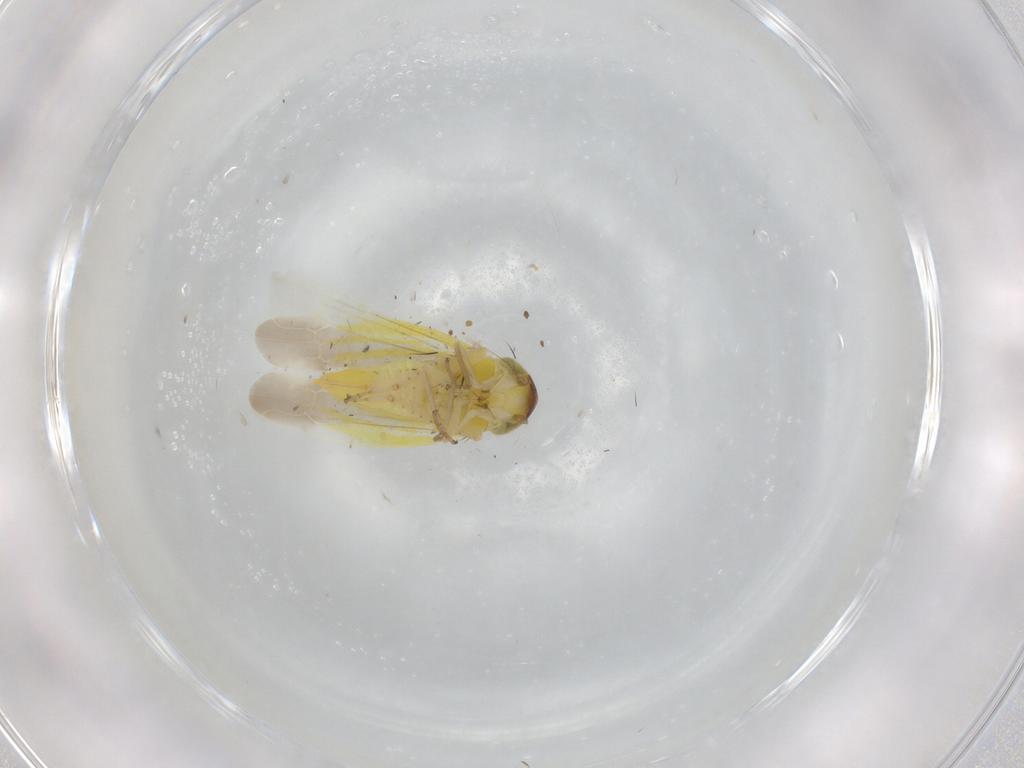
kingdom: Animalia
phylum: Arthropoda
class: Insecta
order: Hemiptera
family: Cicadellidae
